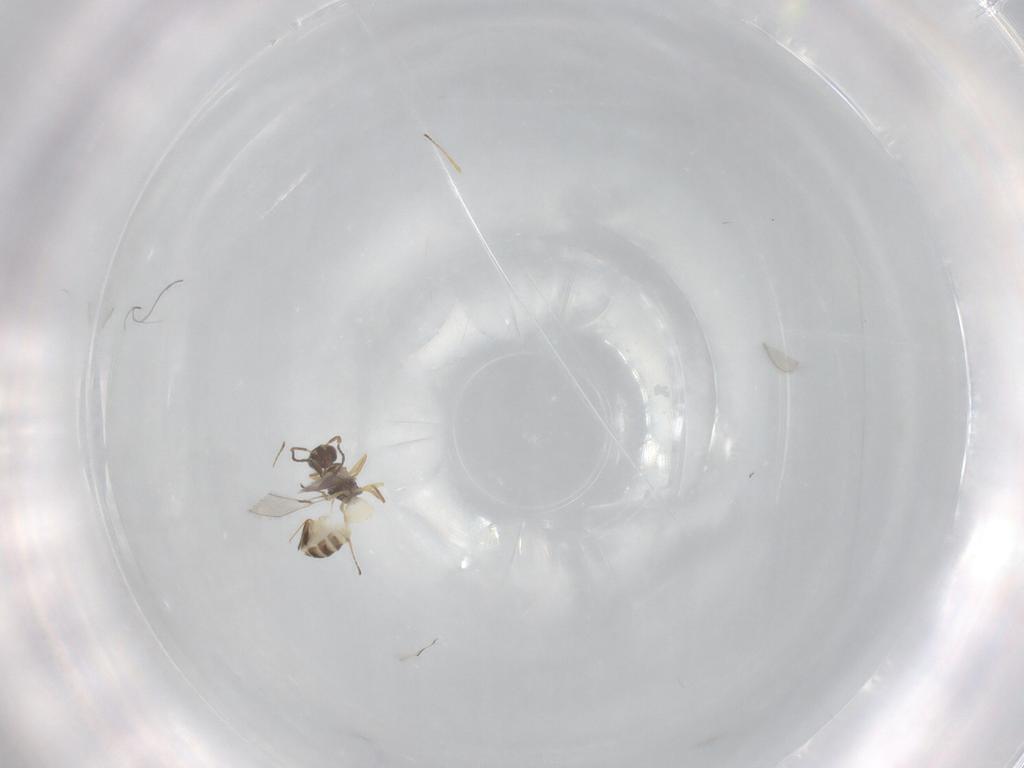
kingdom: Animalia
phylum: Arthropoda
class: Insecta
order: Hymenoptera
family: Mymaridae
